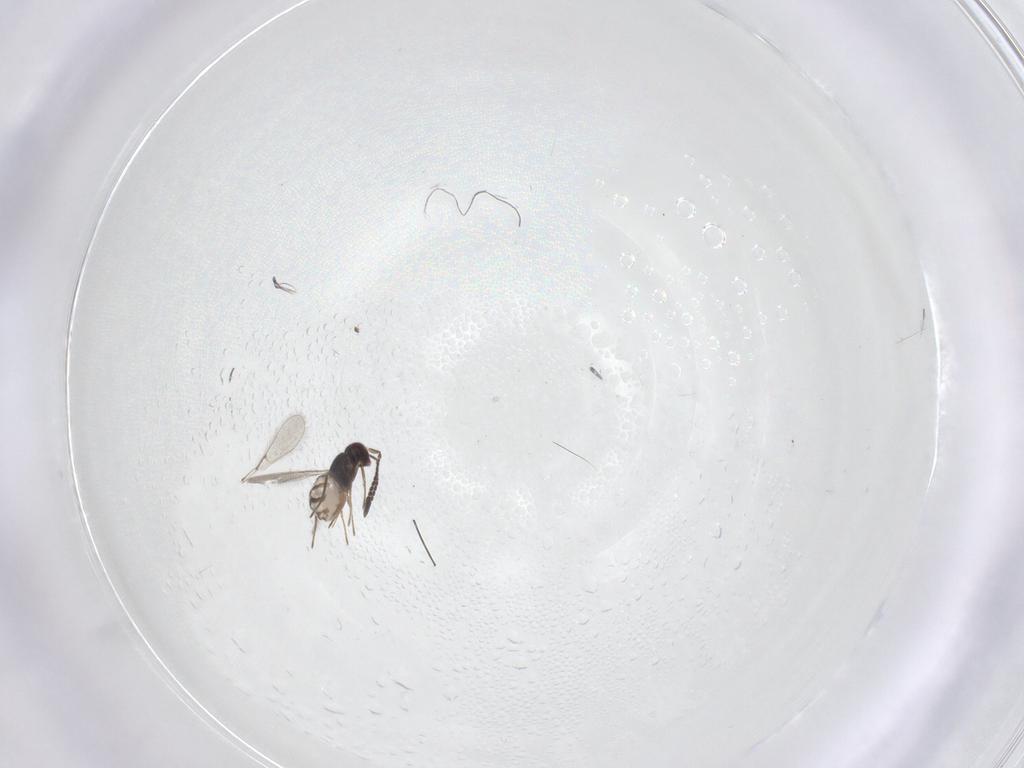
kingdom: Animalia
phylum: Arthropoda
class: Insecta
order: Hymenoptera
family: Mymaridae
